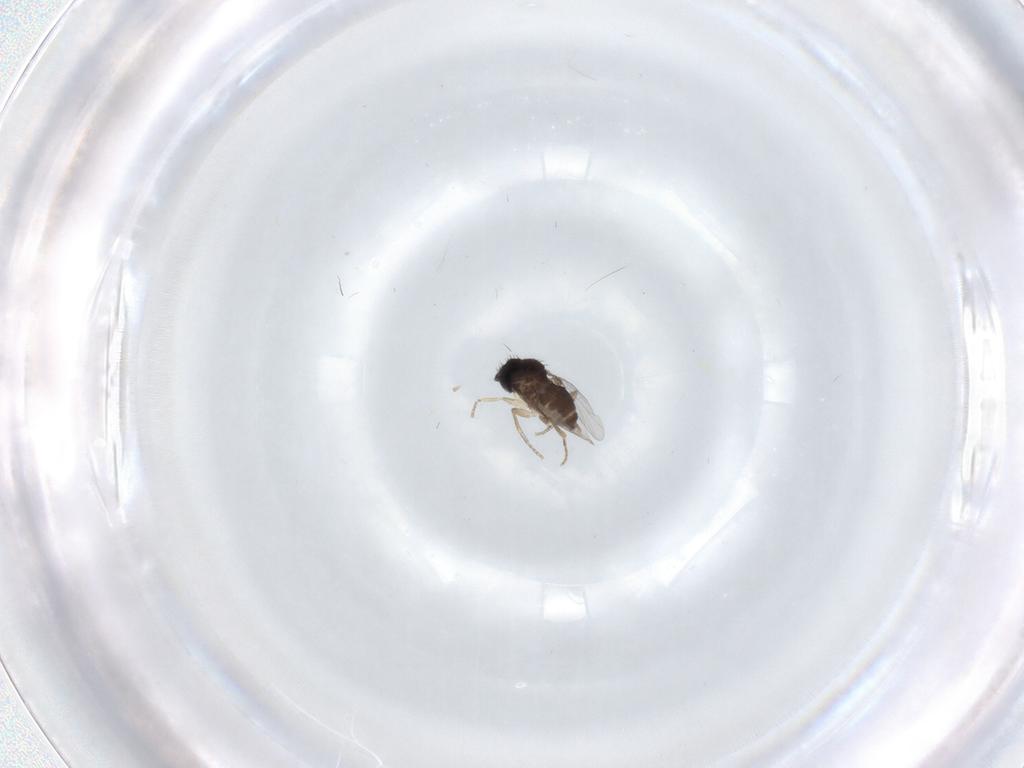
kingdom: Animalia
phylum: Arthropoda
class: Insecta
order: Diptera
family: Phoridae
